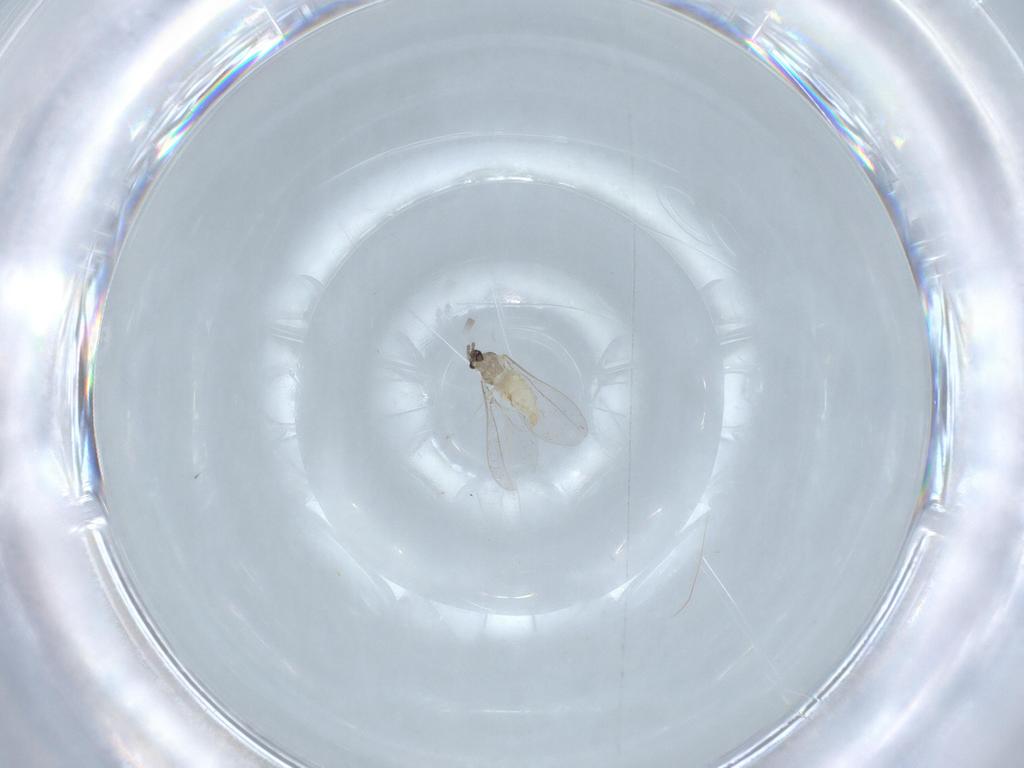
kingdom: Animalia
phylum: Arthropoda
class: Insecta
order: Diptera
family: Cecidomyiidae
